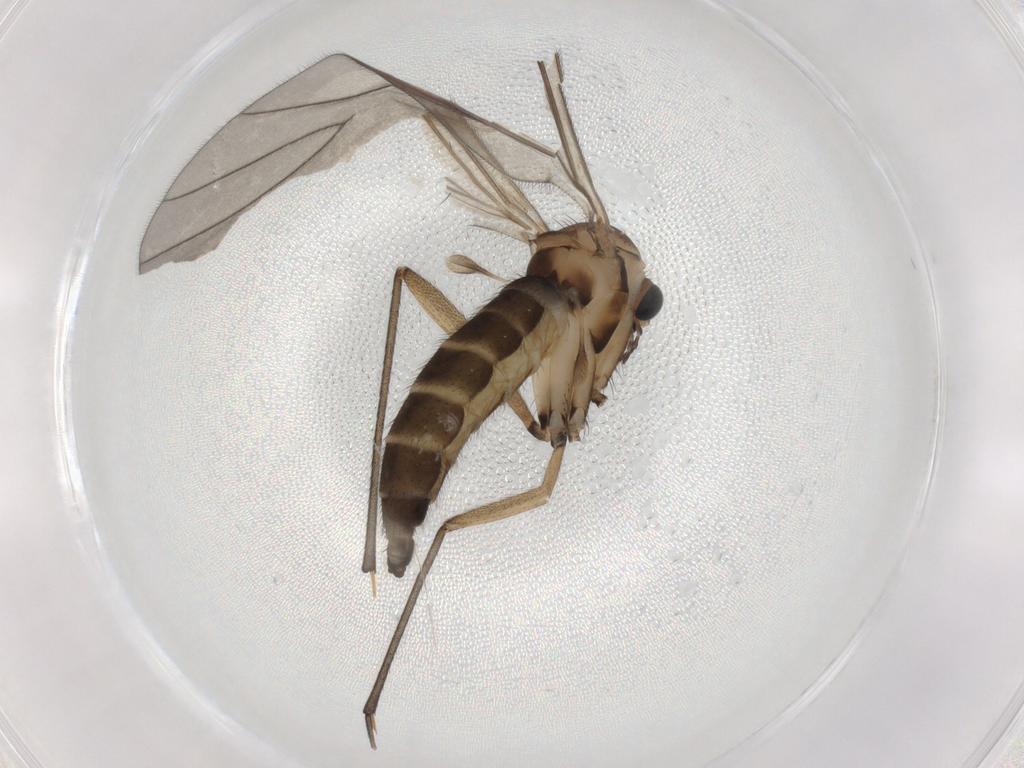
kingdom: Animalia
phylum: Arthropoda
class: Insecta
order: Diptera
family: Sciaridae
